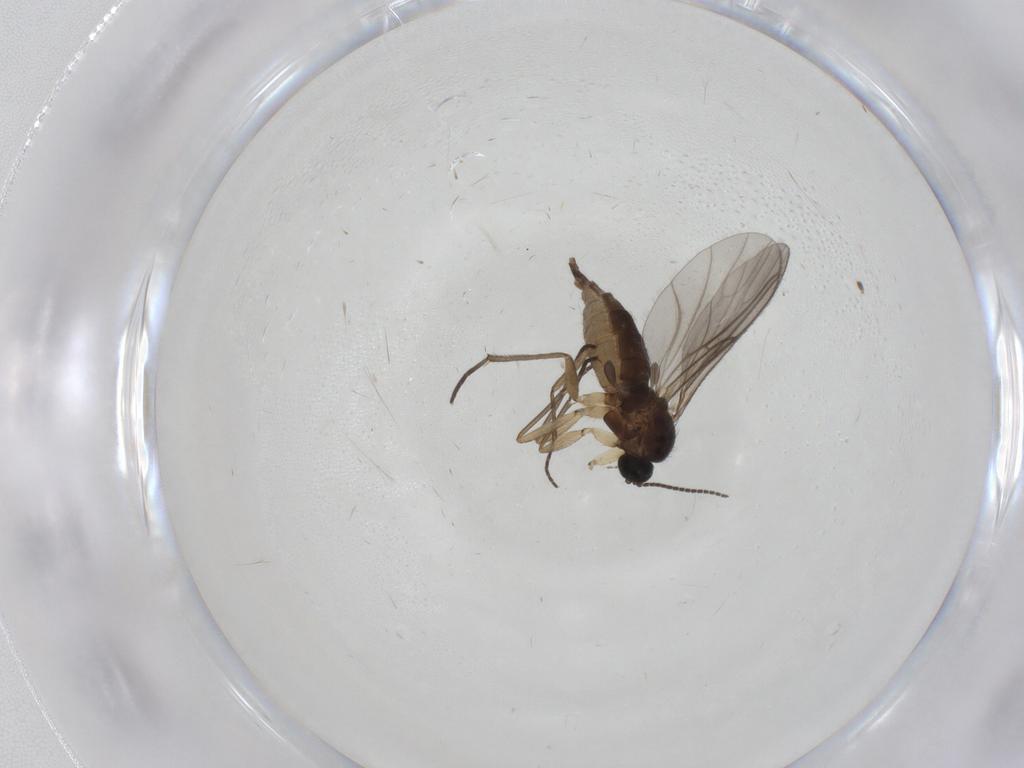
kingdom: Animalia
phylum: Arthropoda
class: Insecta
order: Diptera
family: Sciaridae
